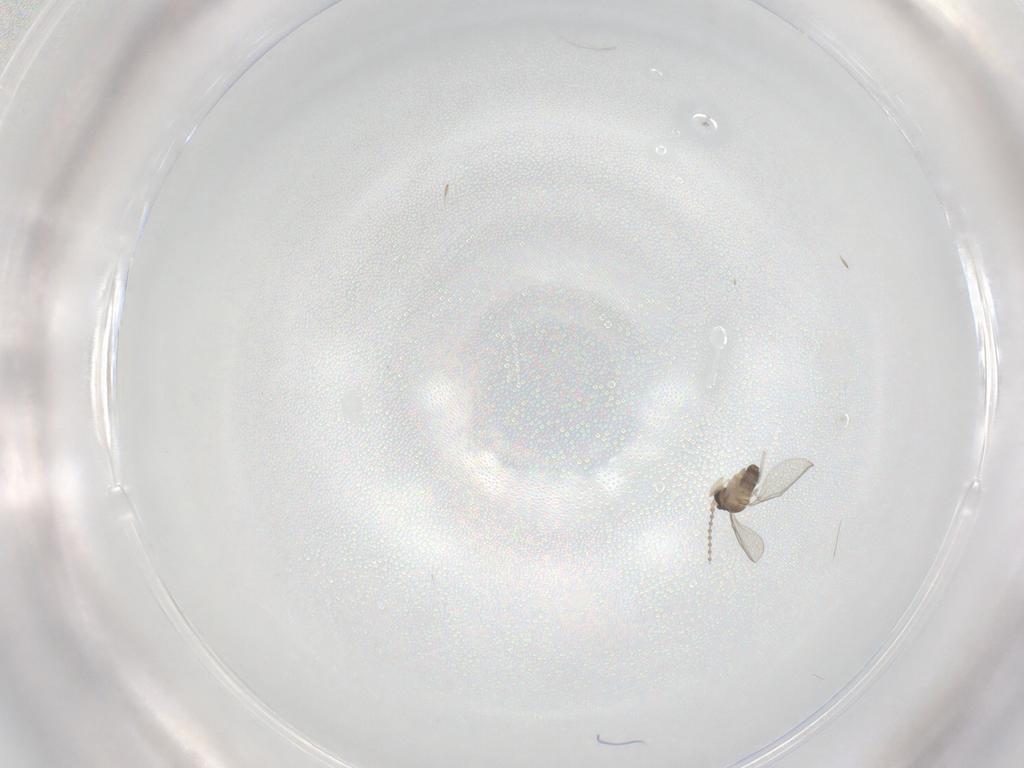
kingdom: Animalia
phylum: Arthropoda
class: Insecta
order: Diptera
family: Cecidomyiidae
